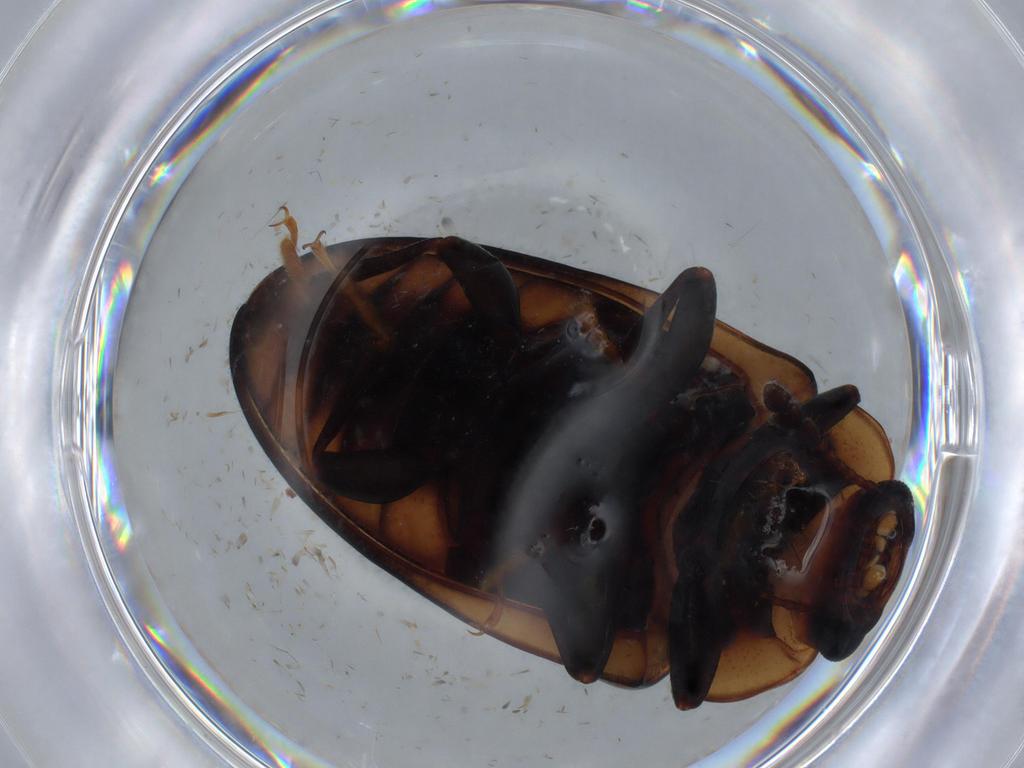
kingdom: Animalia
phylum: Arthropoda
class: Insecta
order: Coleoptera
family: Erotylidae
